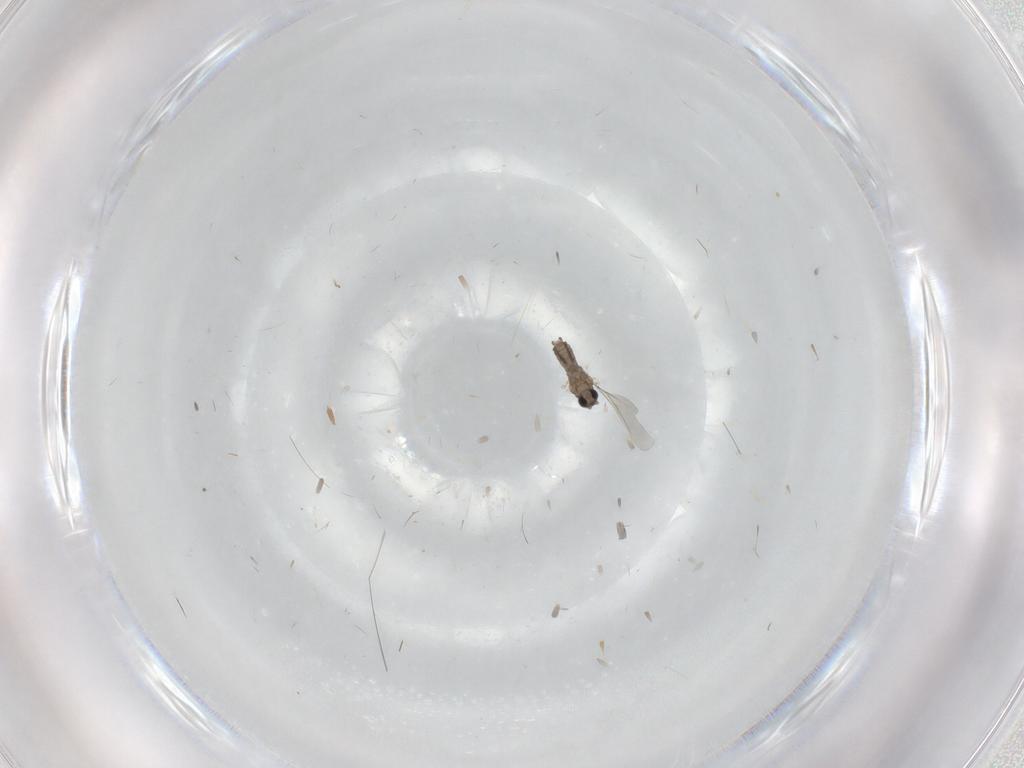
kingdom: Animalia
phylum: Arthropoda
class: Insecta
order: Diptera
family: Cecidomyiidae
